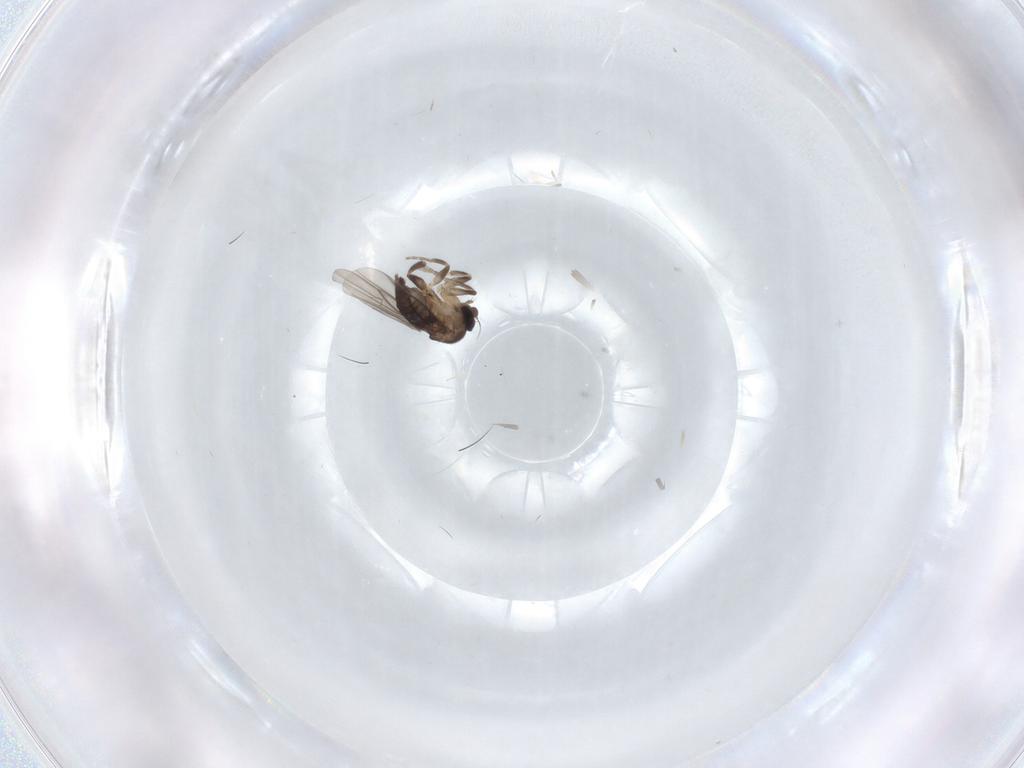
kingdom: Animalia
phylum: Arthropoda
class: Insecta
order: Diptera
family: Phoridae
